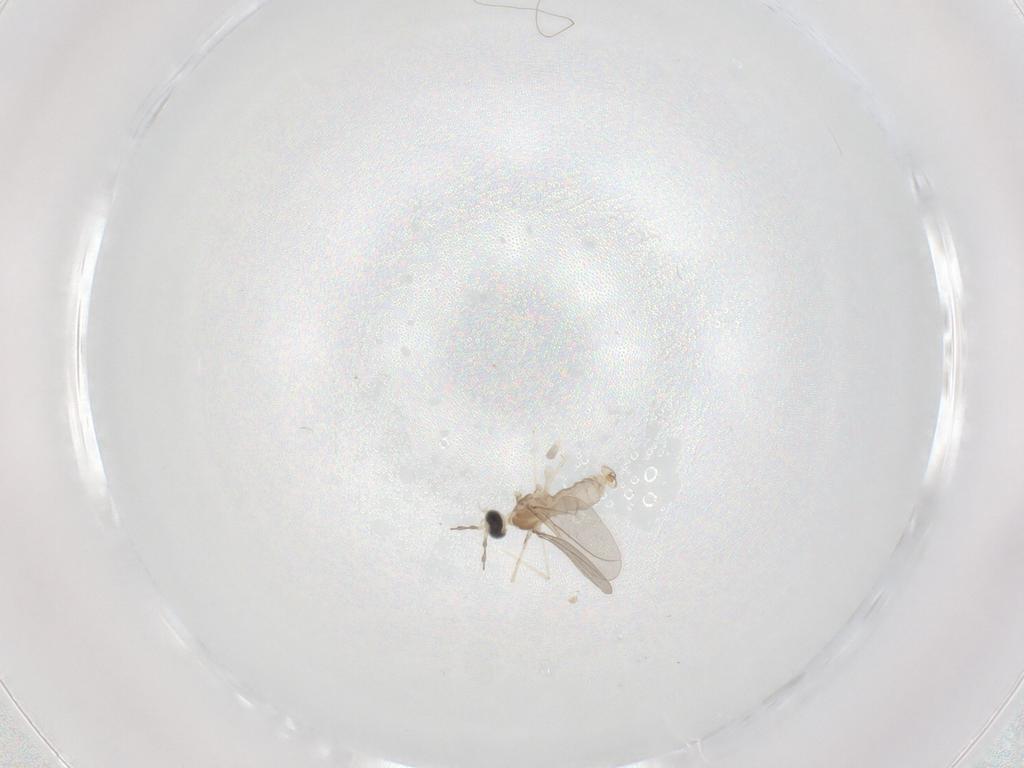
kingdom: Animalia
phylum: Arthropoda
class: Insecta
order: Diptera
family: Cecidomyiidae
